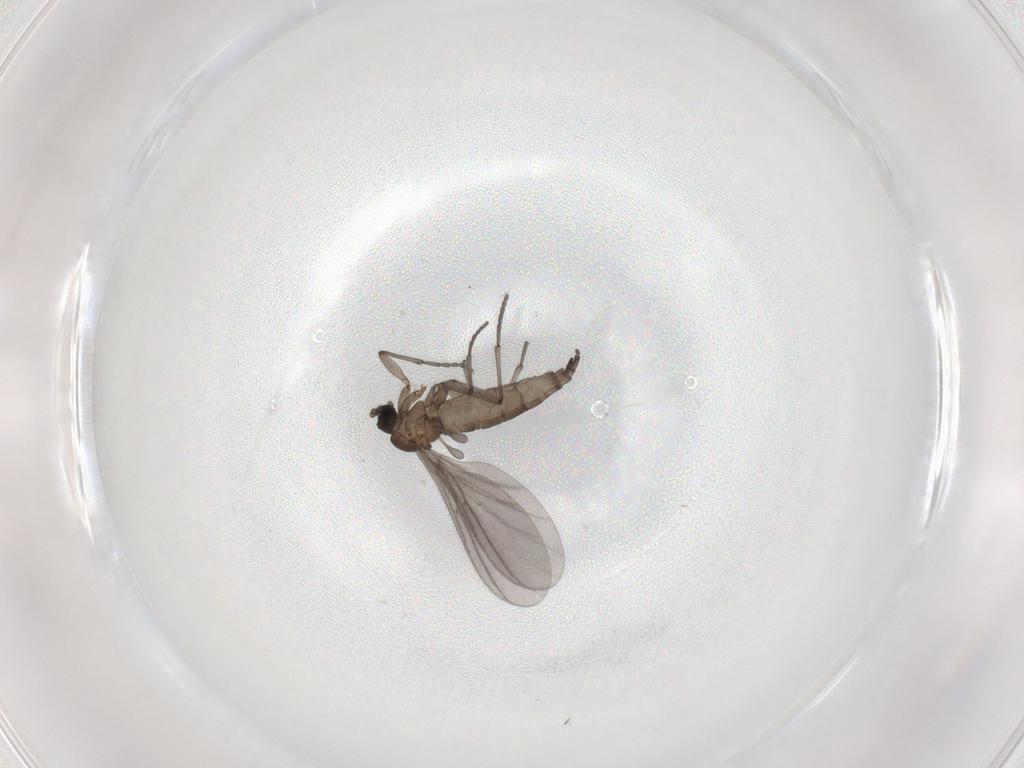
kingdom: Animalia
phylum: Arthropoda
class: Insecta
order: Diptera
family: Sciaridae
